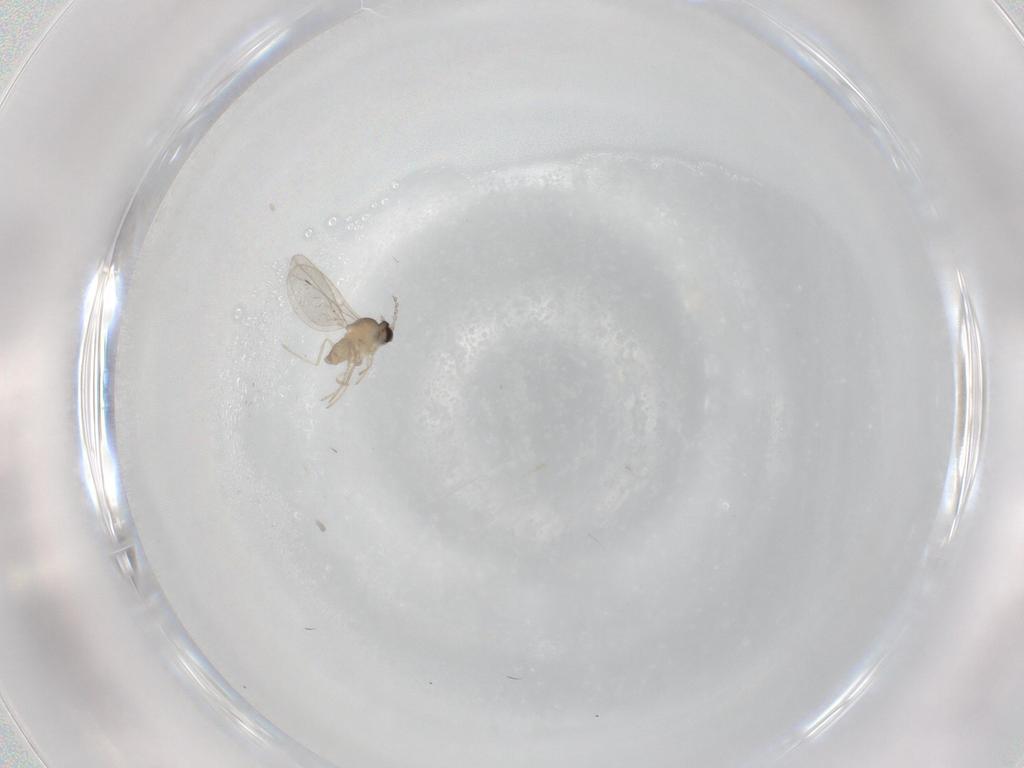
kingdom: Animalia
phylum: Arthropoda
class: Insecta
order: Diptera
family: Cecidomyiidae
